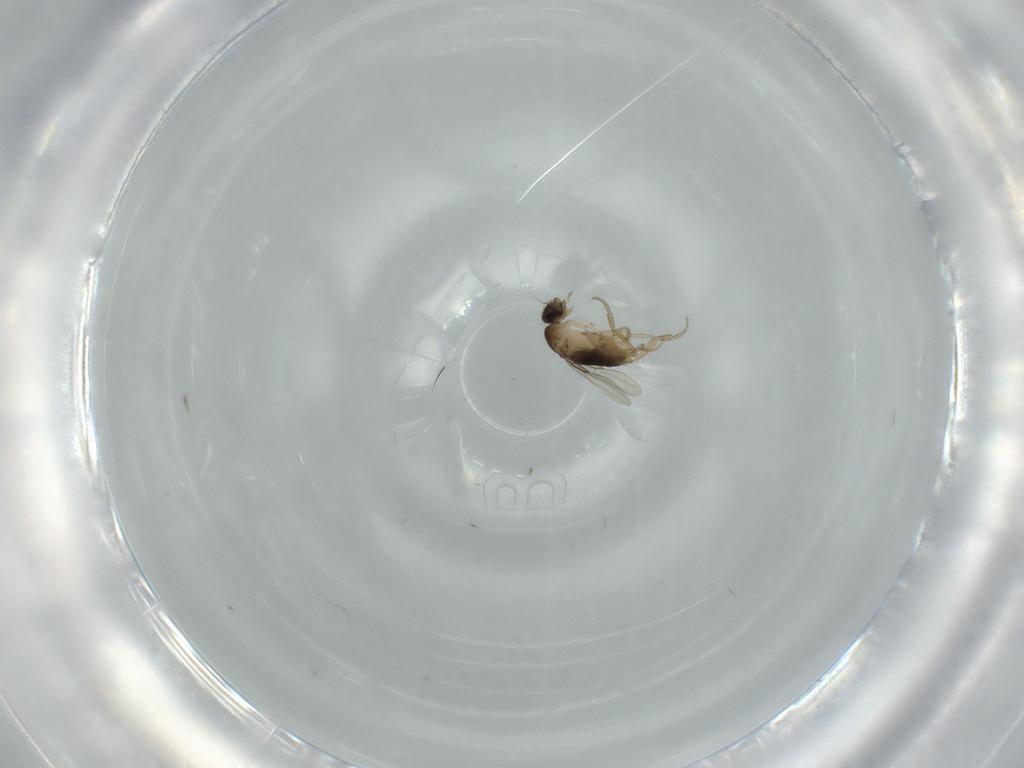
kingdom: Animalia
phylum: Arthropoda
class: Insecta
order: Diptera
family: Phoridae
